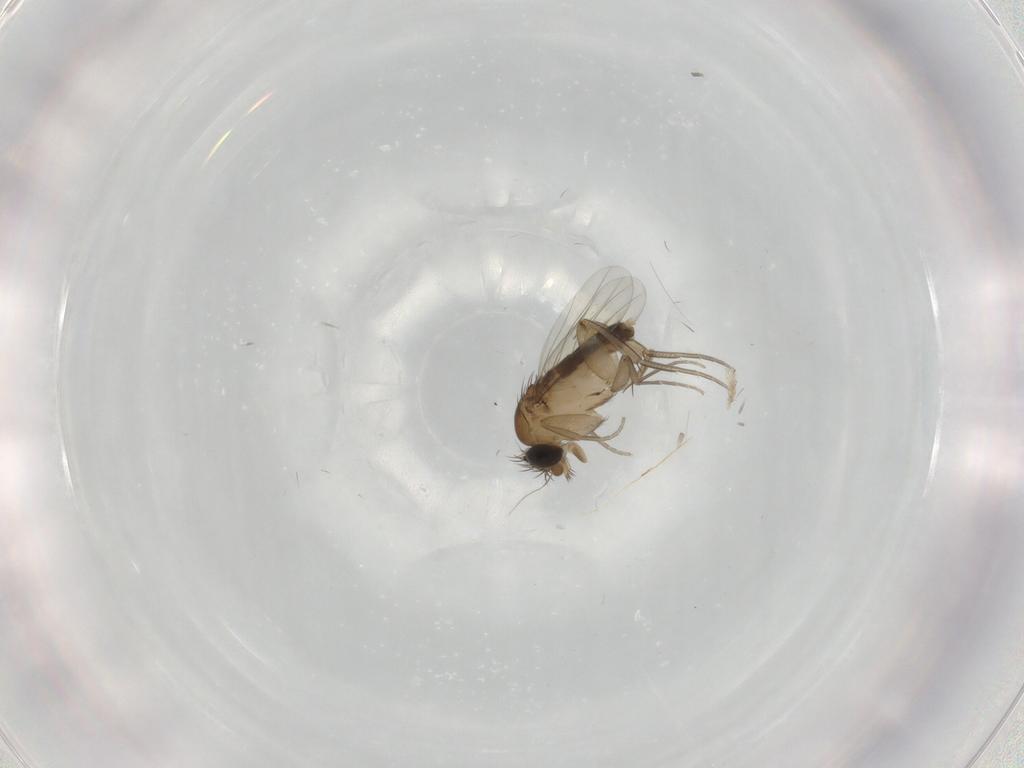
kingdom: Animalia
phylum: Arthropoda
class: Insecta
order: Diptera
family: Phoridae
